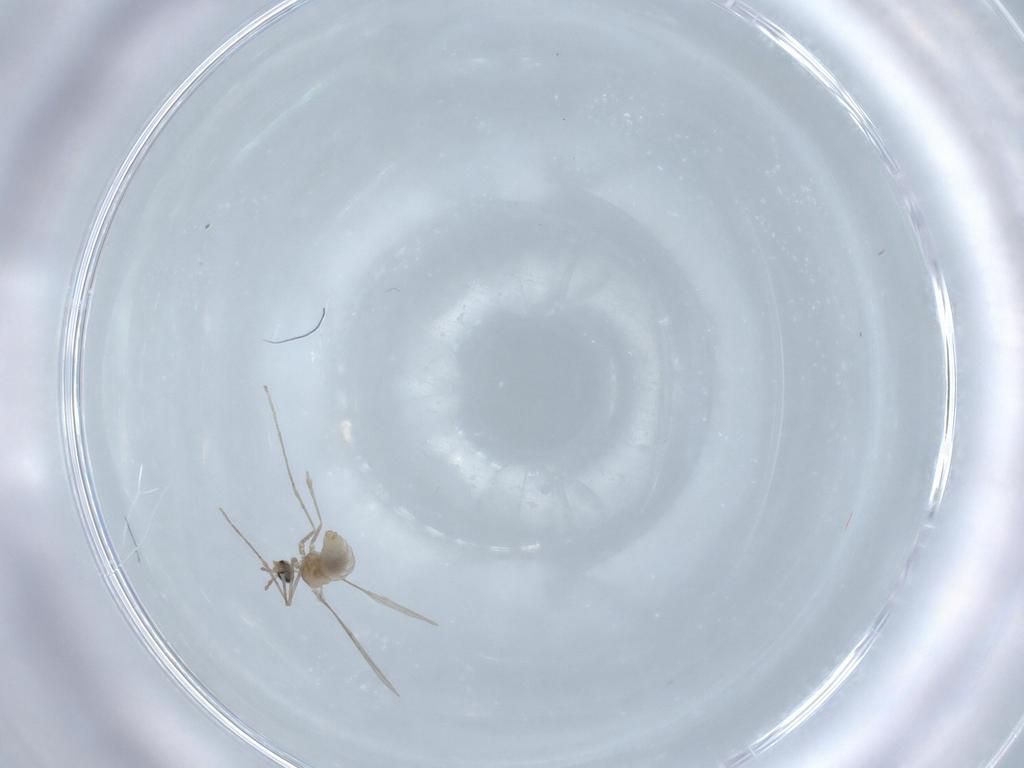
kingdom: Animalia
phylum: Arthropoda
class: Insecta
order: Diptera
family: Cecidomyiidae
